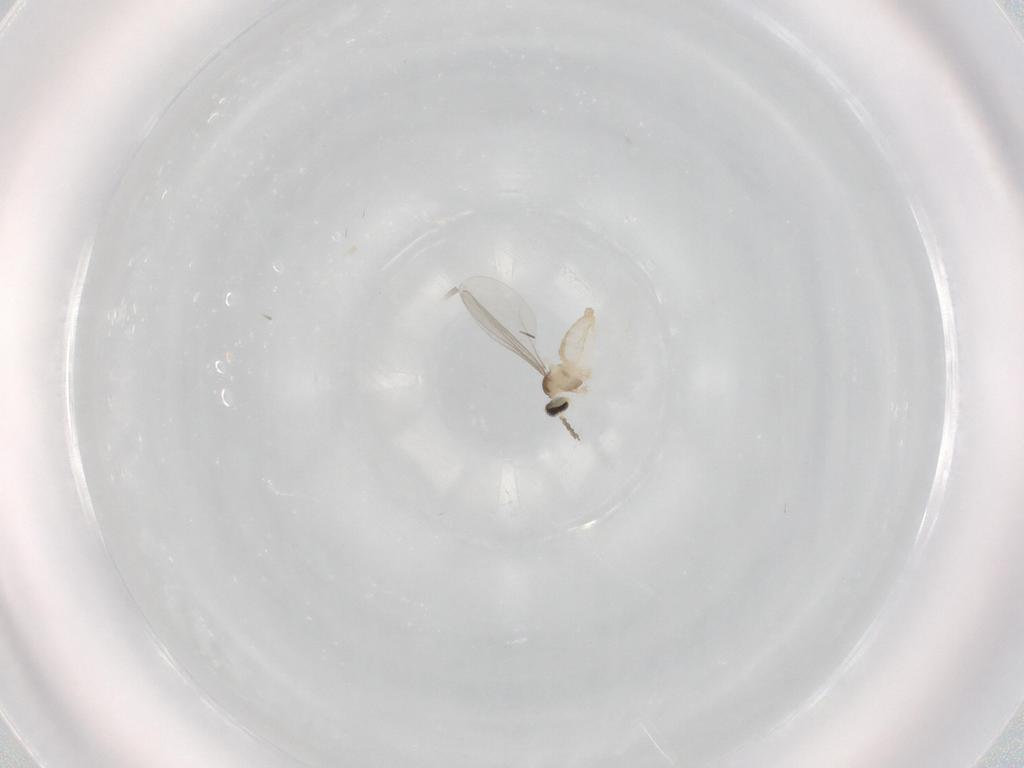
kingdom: Animalia
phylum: Arthropoda
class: Insecta
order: Diptera
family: Cecidomyiidae
